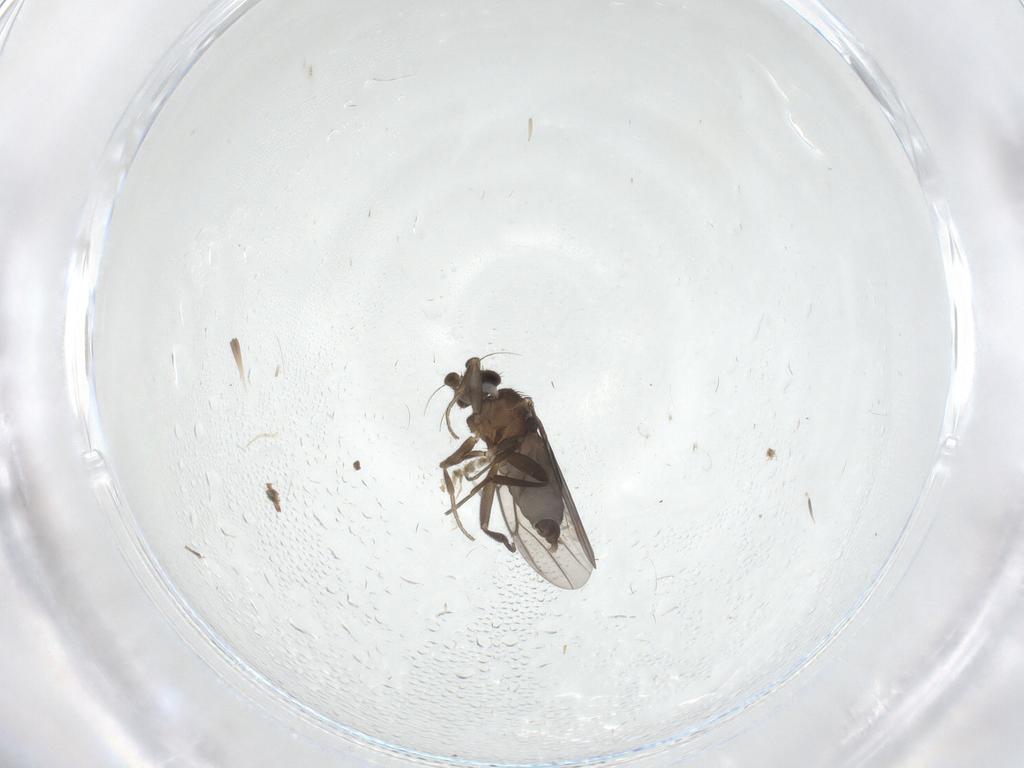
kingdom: Animalia
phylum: Arthropoda
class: Insecta
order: Diptera
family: Phoridae
